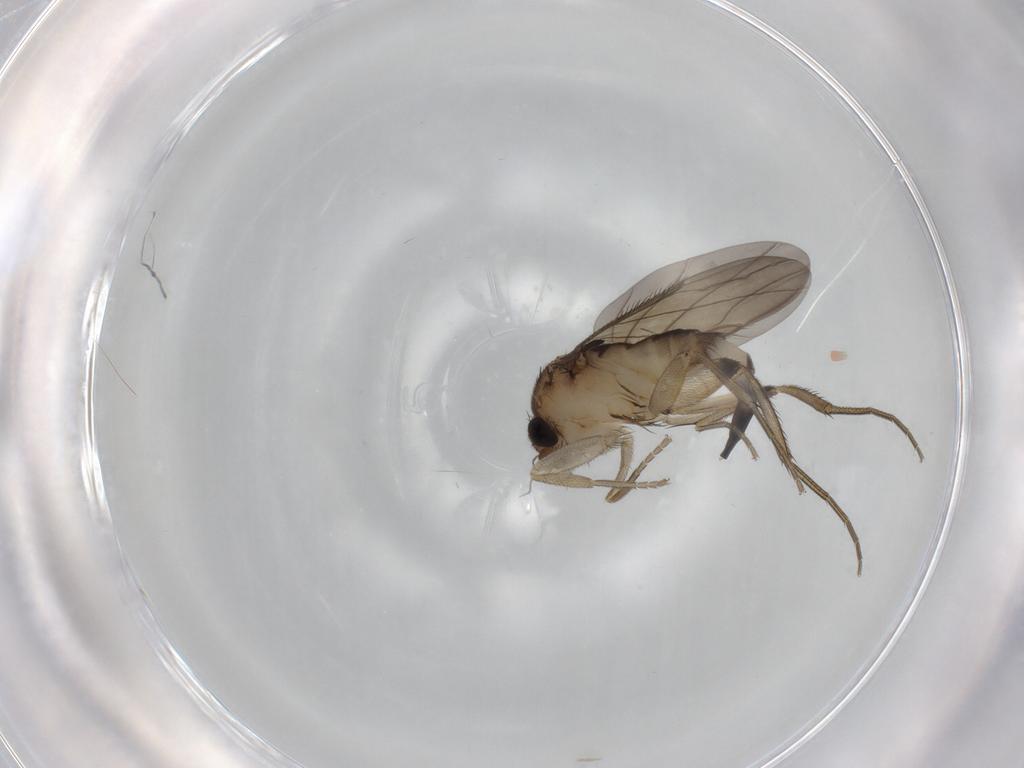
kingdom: Animalia
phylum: Arthropoda
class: Insecta
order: Diptera
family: Phoridae
